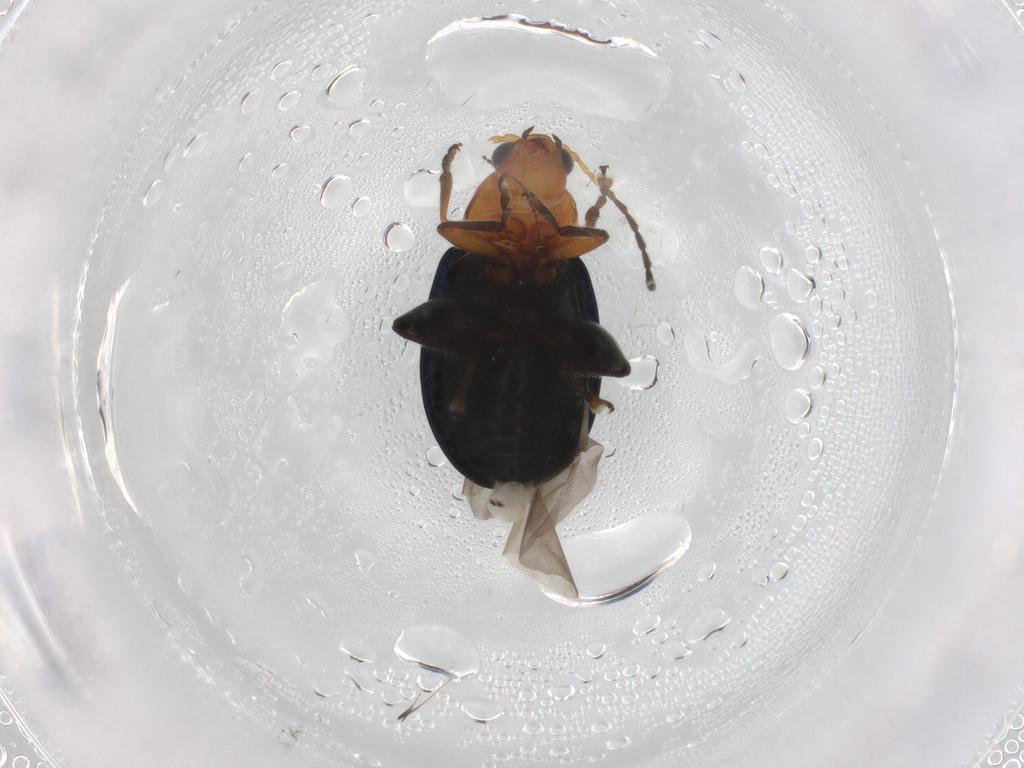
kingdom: Animalia
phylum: Arthropoda
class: Insecta
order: Coleoptera
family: Chrysomelidae
